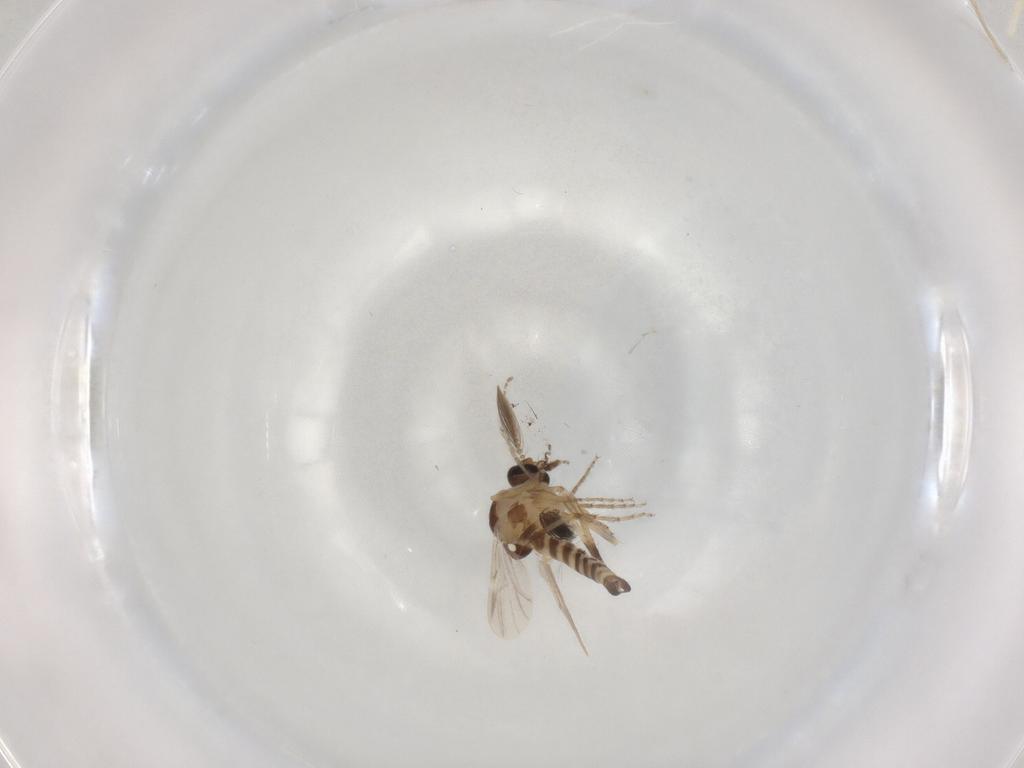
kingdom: Animalia
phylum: Arthropoda
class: Insecta
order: Diptera
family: Ceratopogonidae
